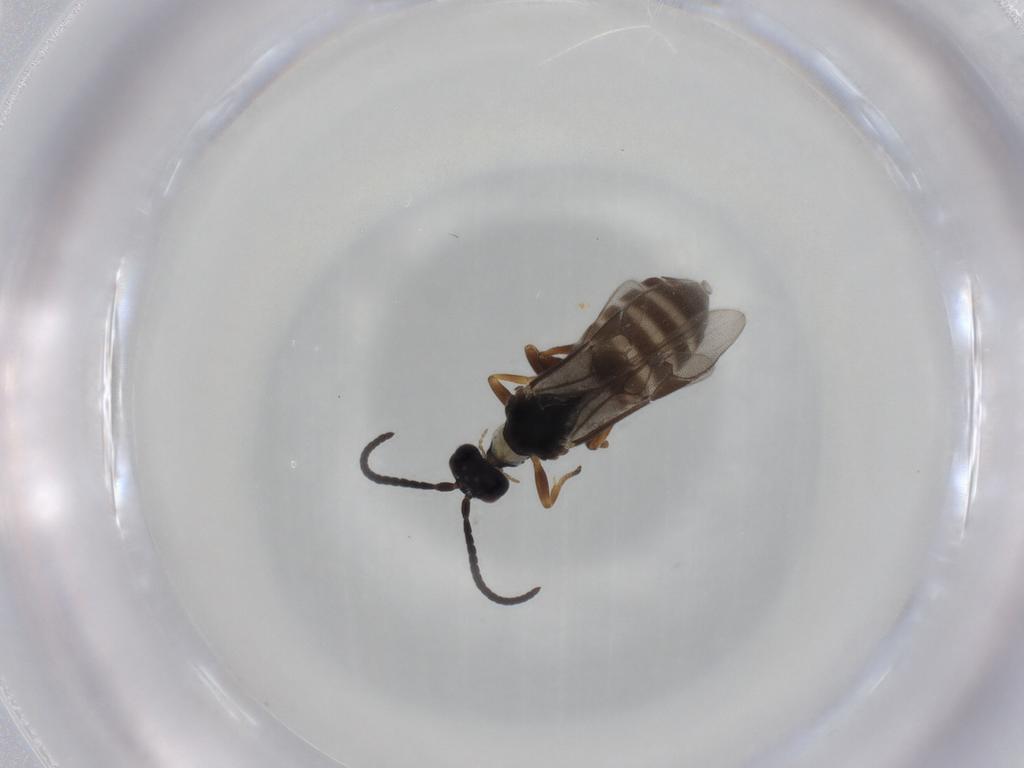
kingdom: Animalia
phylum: Arthropoda
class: Insecta
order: Hymenoptera
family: Braconidae
